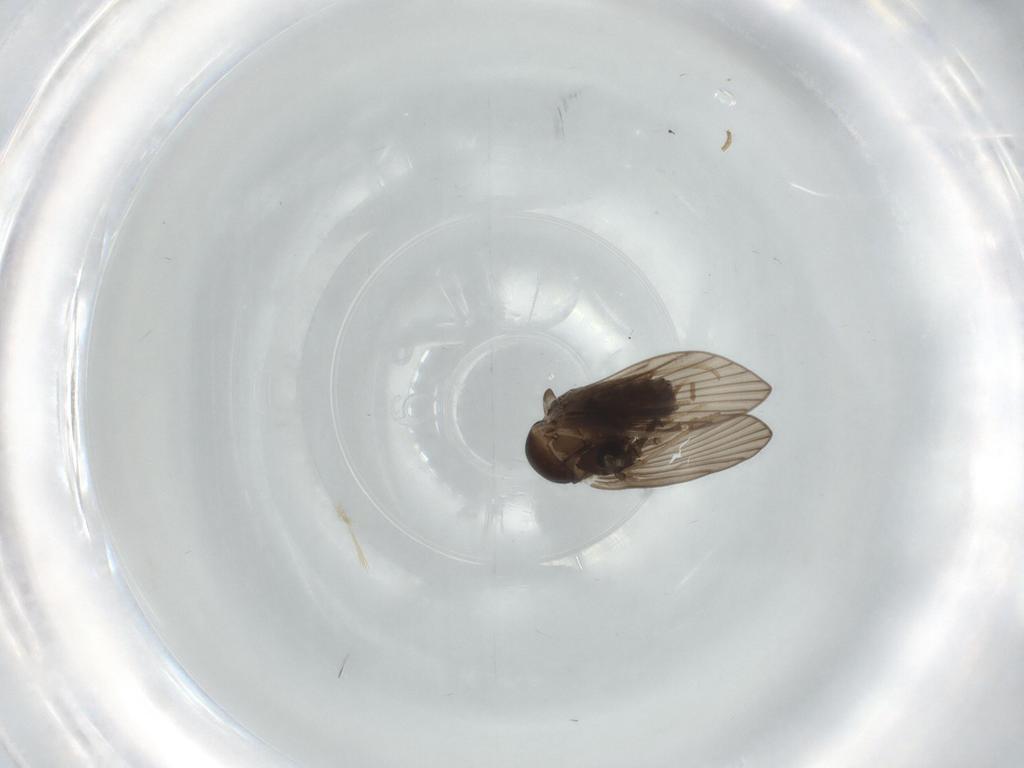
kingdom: Animalia
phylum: Arthropoda
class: Insecta
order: Diptera
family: Psychodidae
